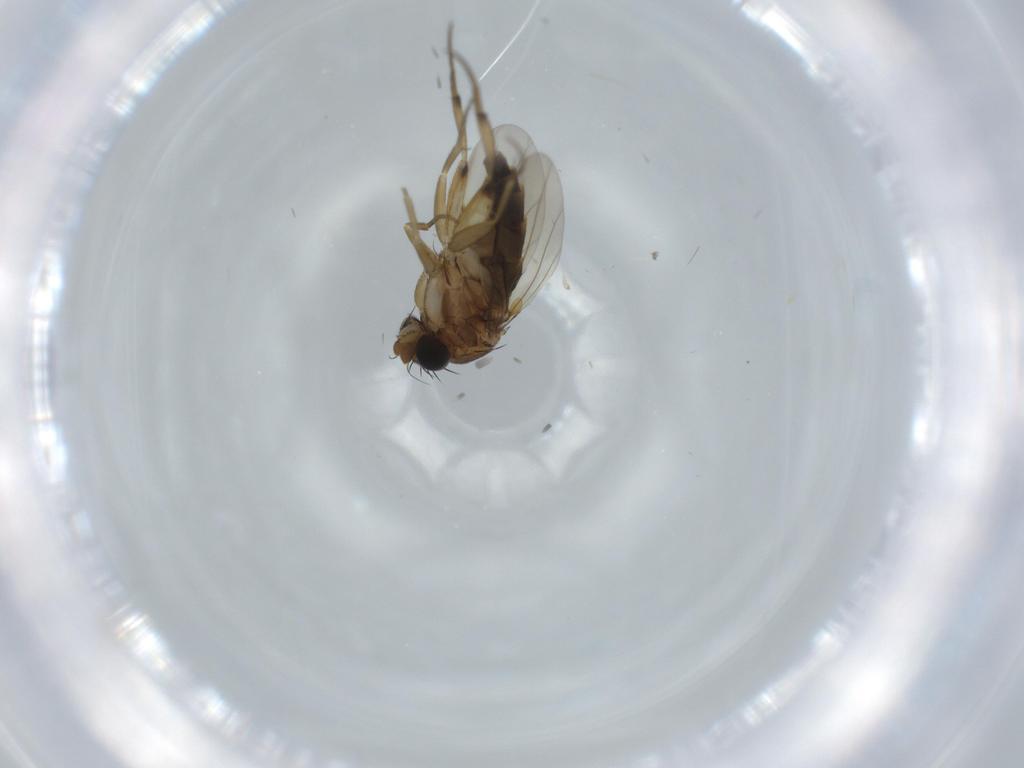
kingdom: Animalia
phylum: Arthropoda
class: Insecta
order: Diptera
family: Phoridae
